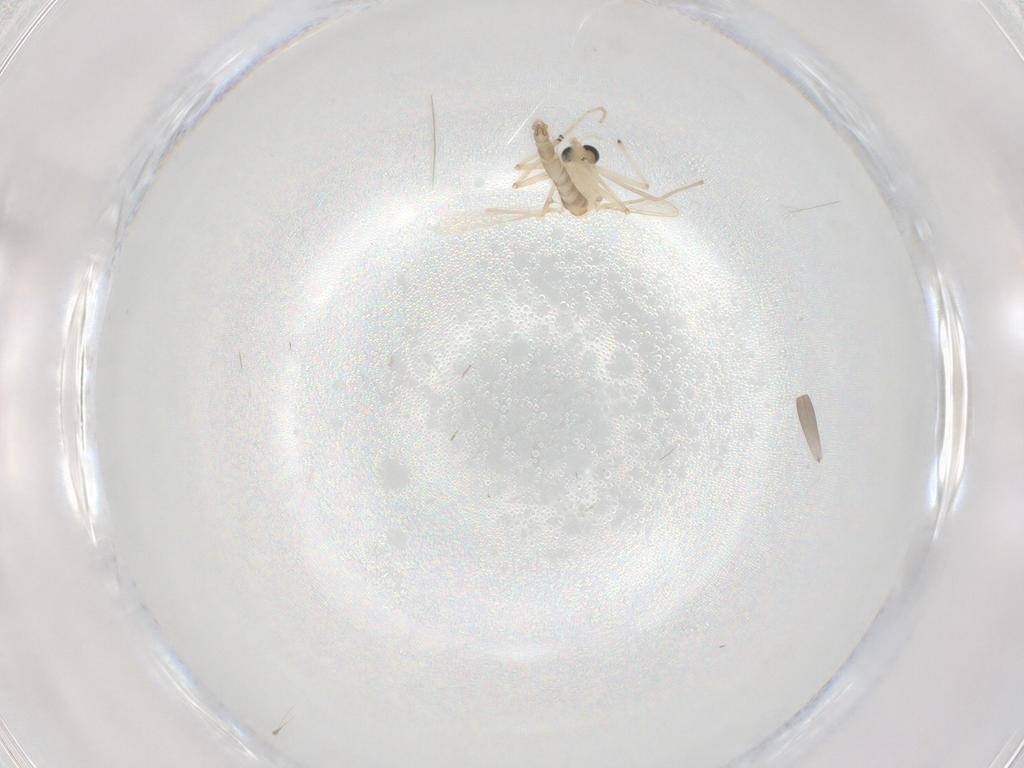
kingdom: Animalia
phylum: Arthropoda
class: Insecta
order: Diptera
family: Chironomidae
